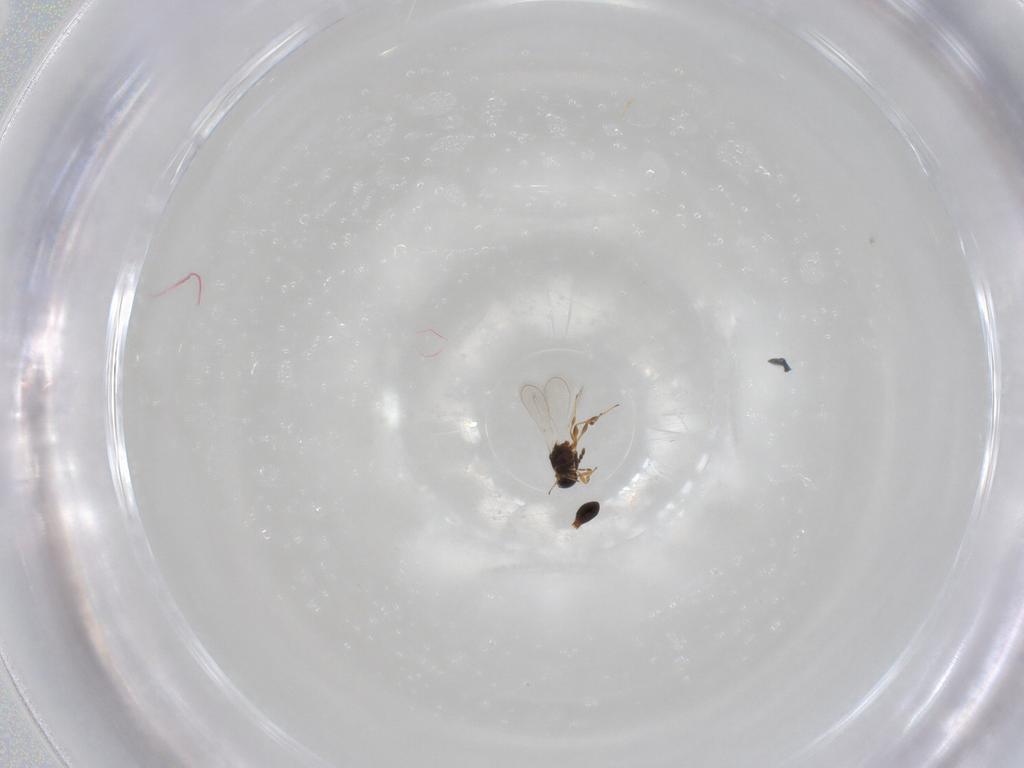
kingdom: Animalia
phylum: Arthropoda
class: Insecta
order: Hymenoptera
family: Platygastridae
